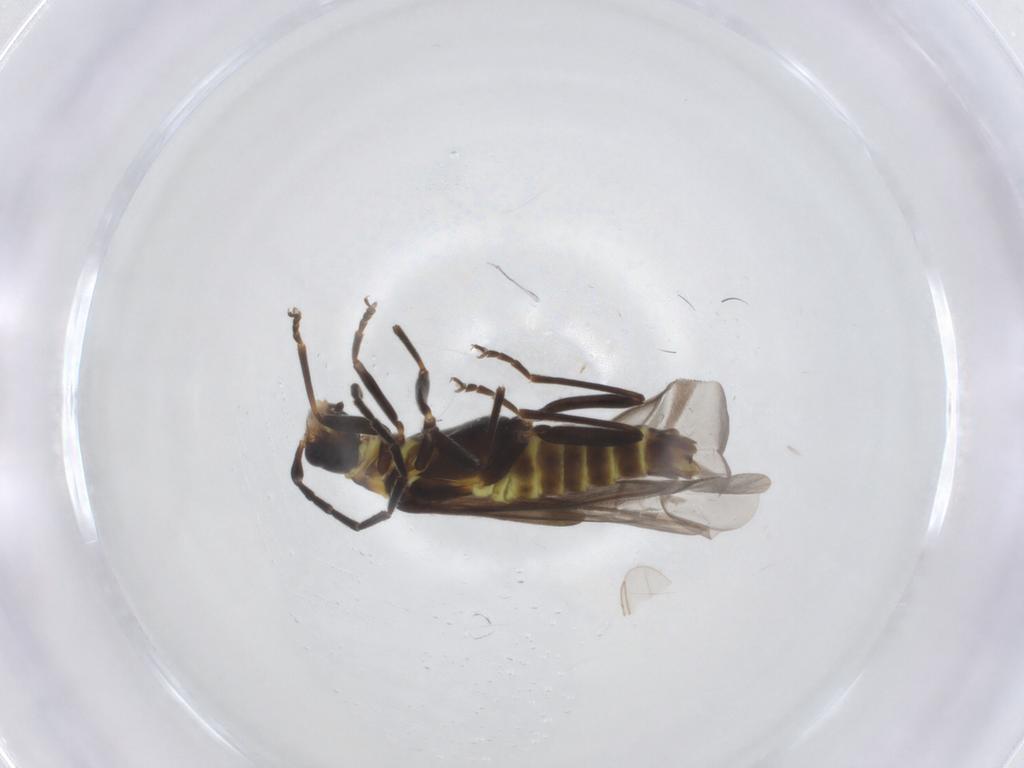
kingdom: Animalia
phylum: Arthropoda
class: Insecta
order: Coleoptera
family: Cantharidae
